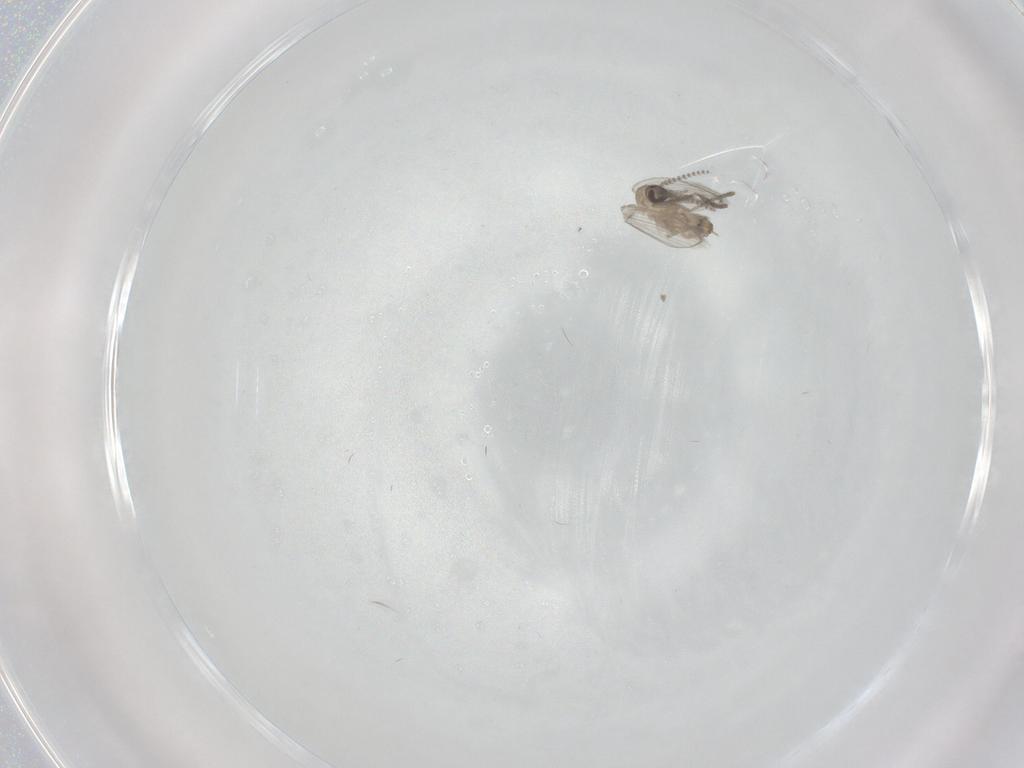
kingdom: Animalia
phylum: Arthropoda
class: Insecta
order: Diptera
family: Psychodidae
